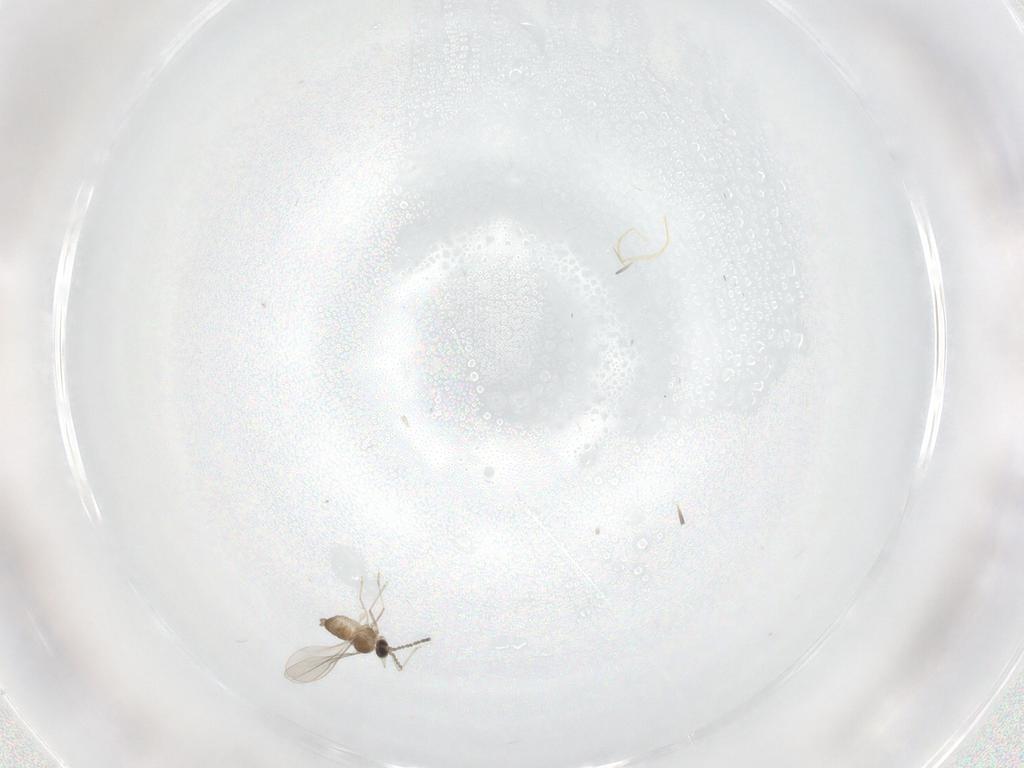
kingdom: Animalia
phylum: Arthropoda
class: Insecta
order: Diptera
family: Cecidomyiidae
